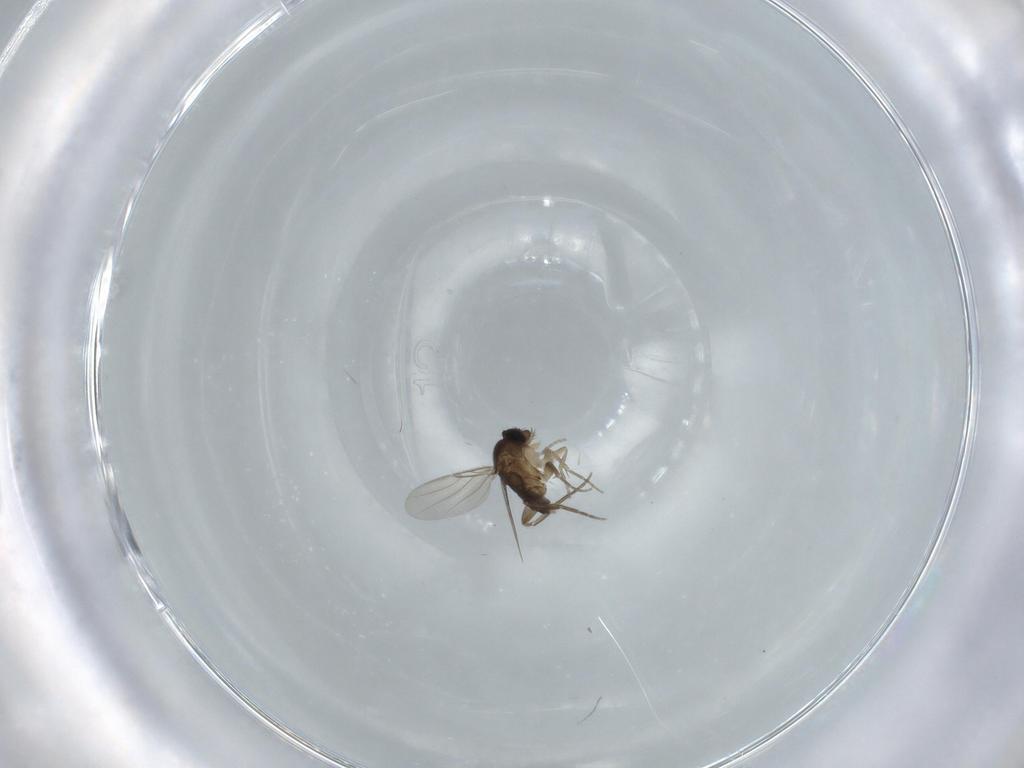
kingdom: Animalia
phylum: Arthropoda
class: Insecta
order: Diptera
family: Phoridae
